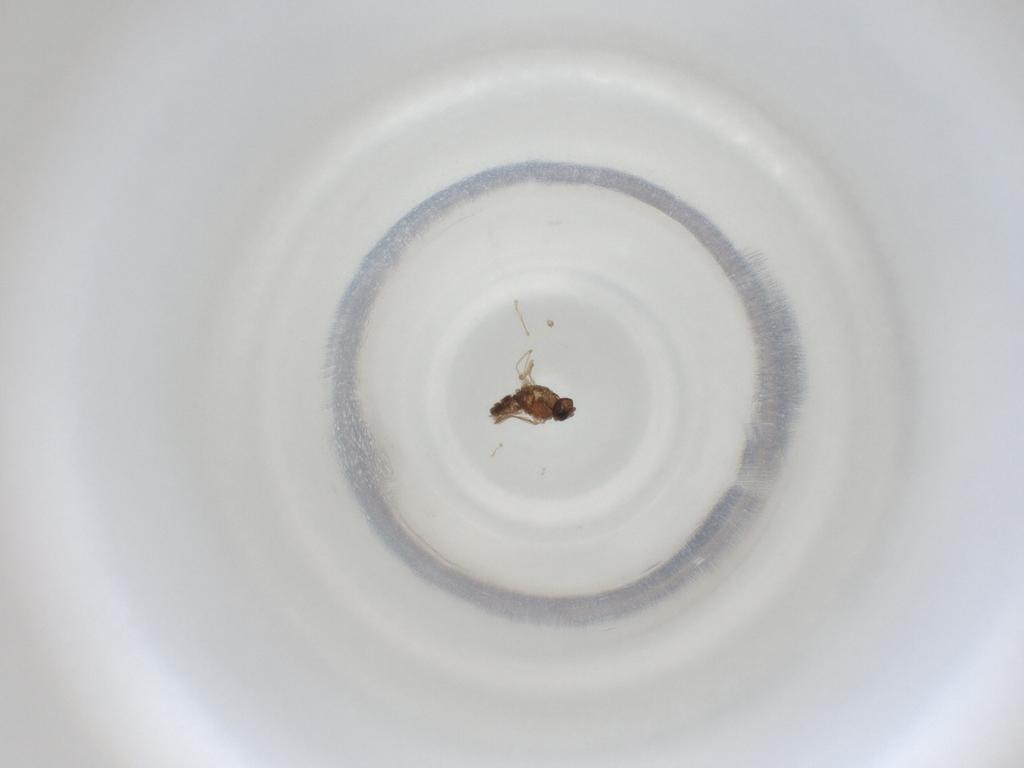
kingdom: Animalia
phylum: Arthropoda
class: Insecta
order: Diptera
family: Cecidomyiidae
